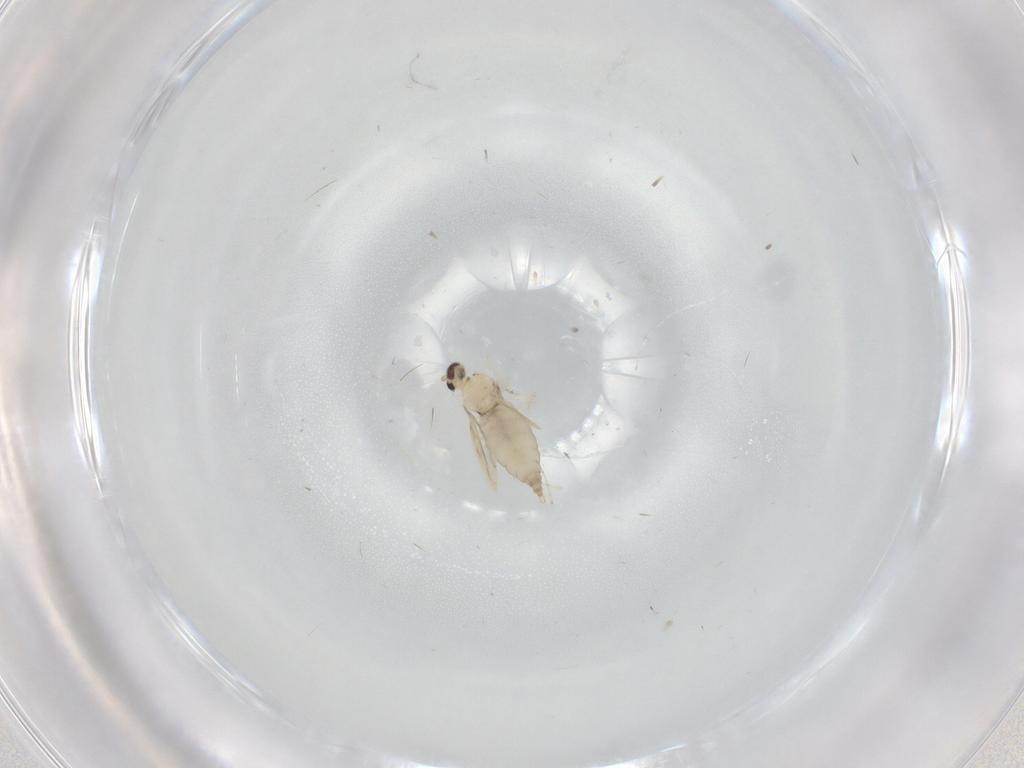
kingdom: Animalia
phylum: Arthropoda
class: Insecta
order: Diptera
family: Cecidomyiidae
